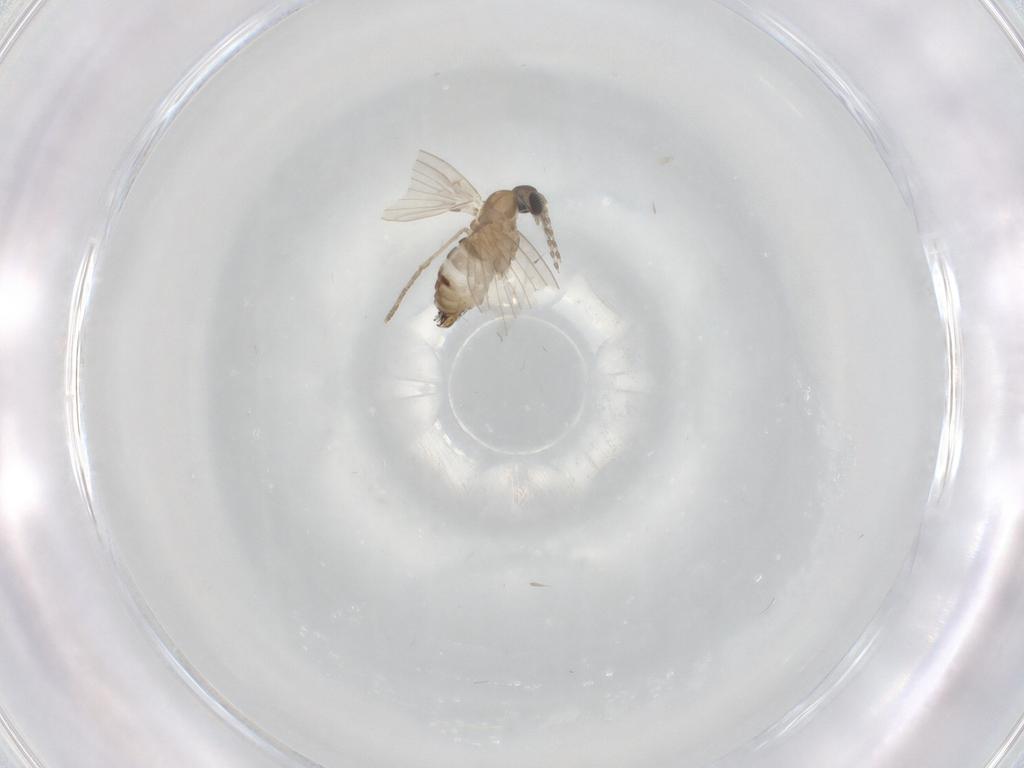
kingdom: Animalia
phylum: Arthropoda
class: Insecta
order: Diptera
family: Psychodidae
